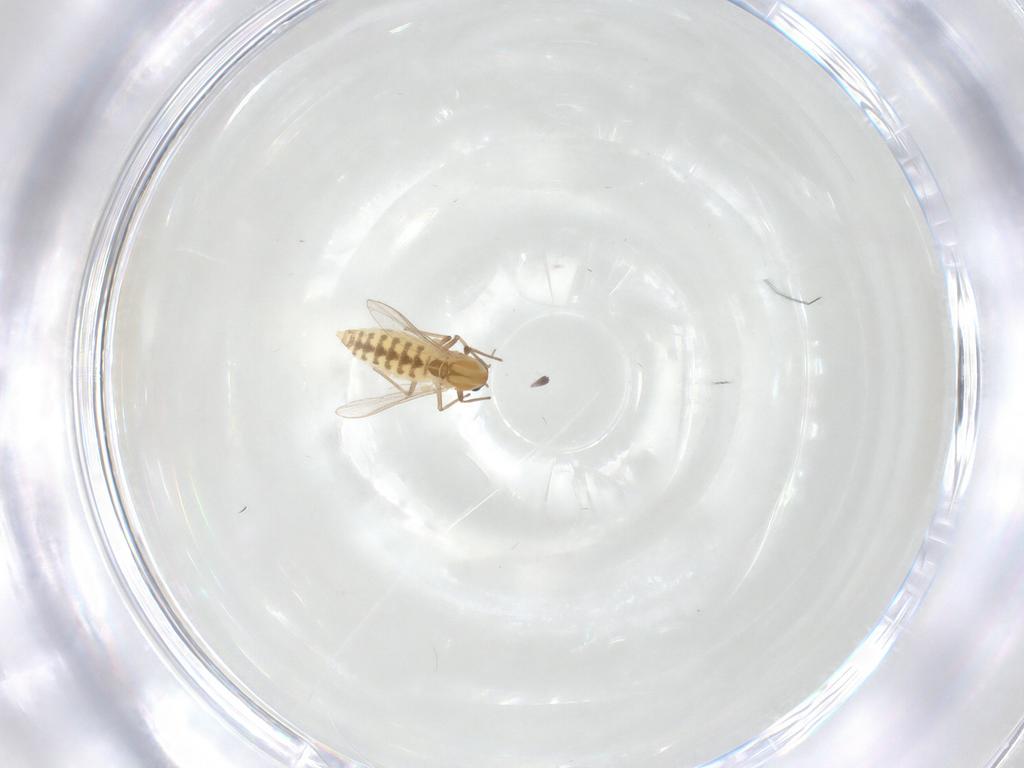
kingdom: Animalia
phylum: Arthropoda
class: Insecta
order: Diptera
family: Chironomidae
